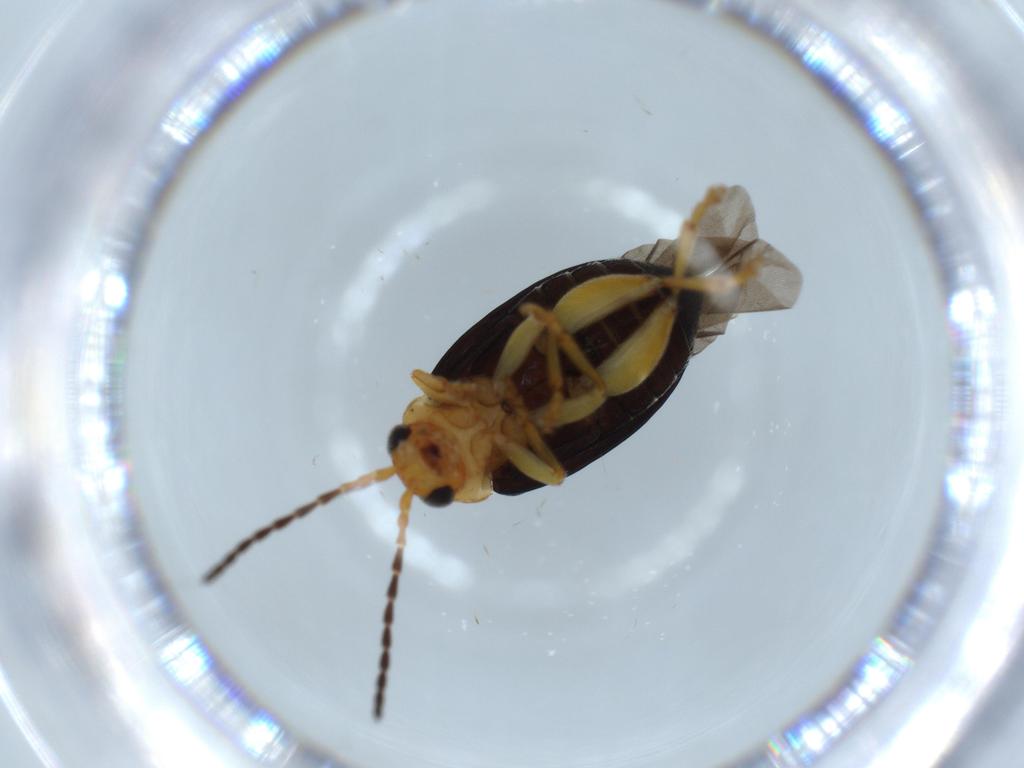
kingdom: Animalia
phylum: Arthropoda
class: Insecta
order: Coleoptera
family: Chrysomelidae
